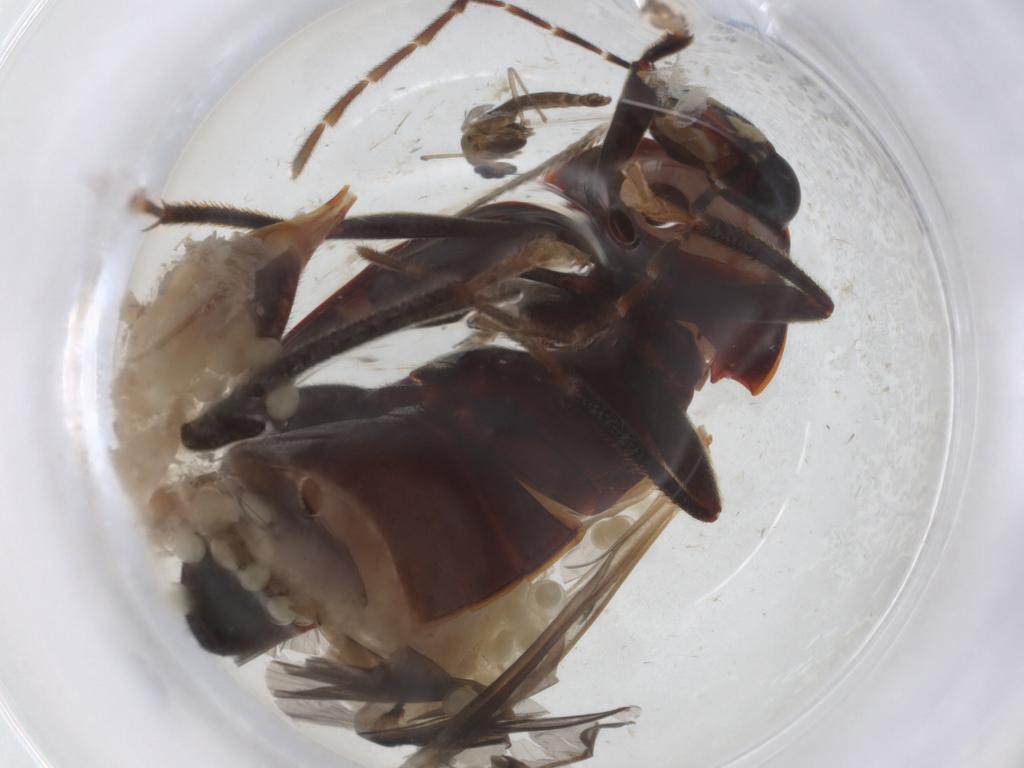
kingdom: Animalia
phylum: Arthropoda
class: Insecta
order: Coleoptera
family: Ptilodactylidae
